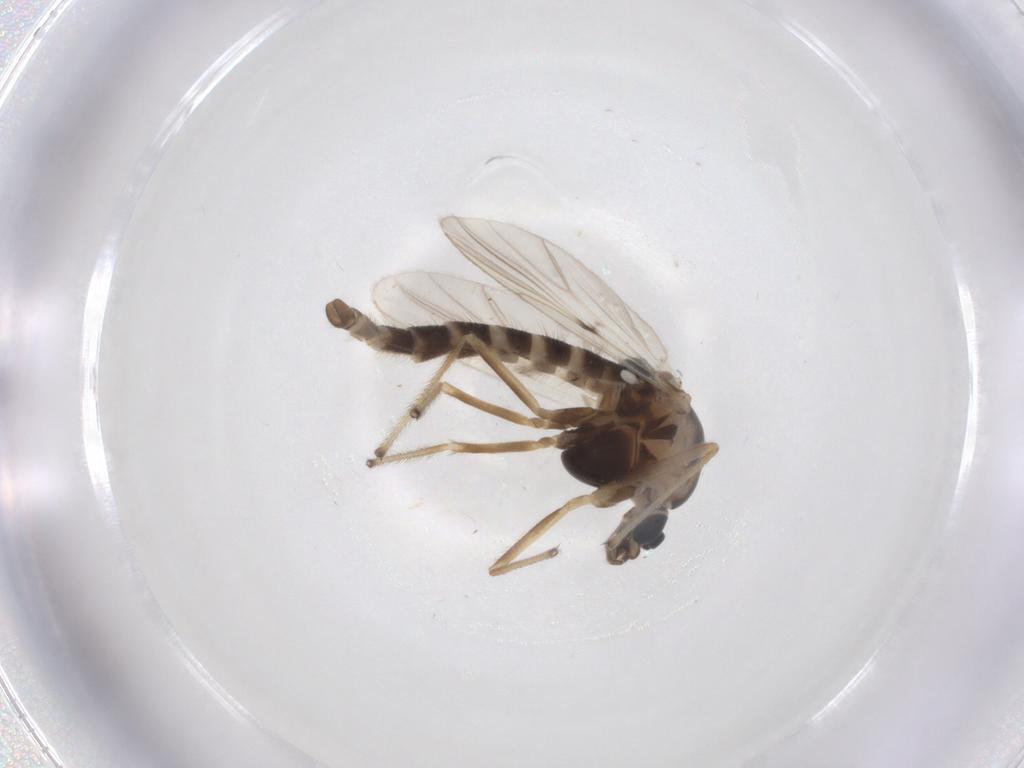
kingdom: Animalia
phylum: Arthropoda
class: Insecta
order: Diptera
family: Chironomidae
